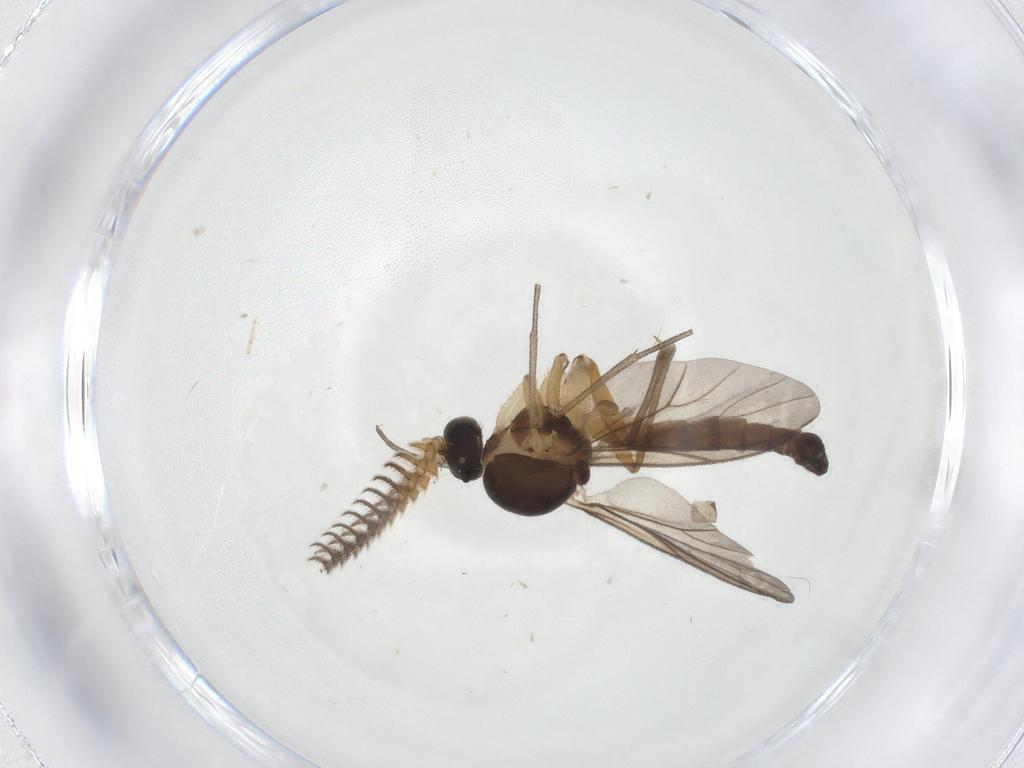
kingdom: Animalia
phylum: Arthropoda
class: Insecta
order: Diptera
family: Mycetophilidae
